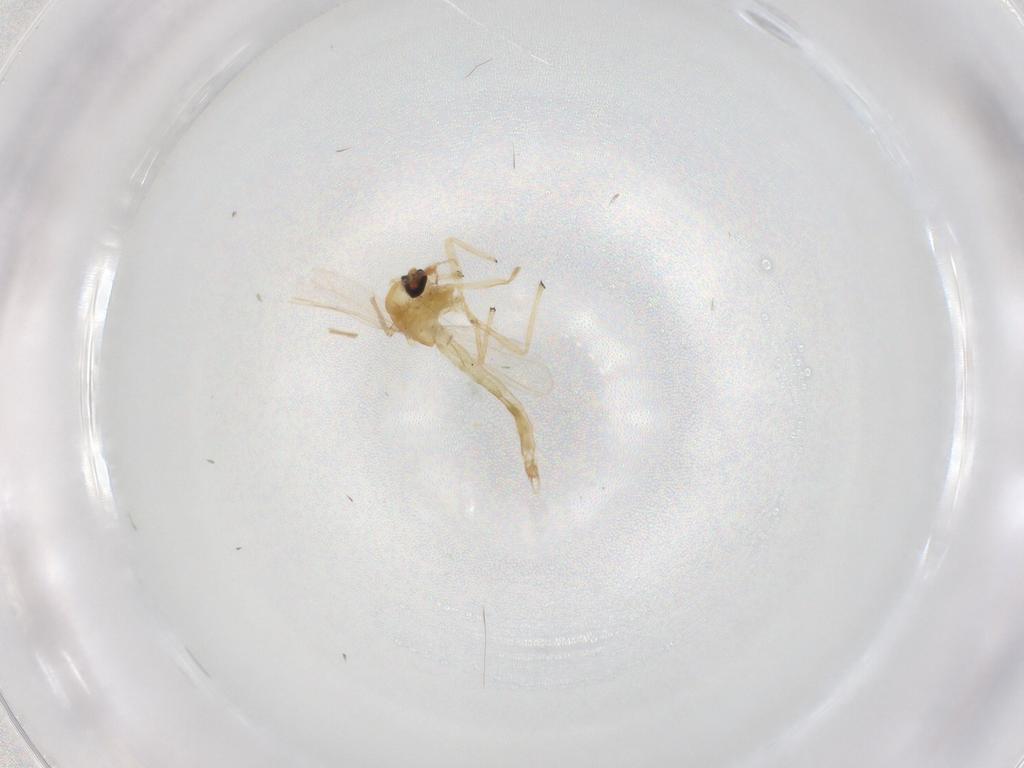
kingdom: Animalia
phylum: Arthropoda
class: Insecta
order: Diptera
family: Chironomidae
